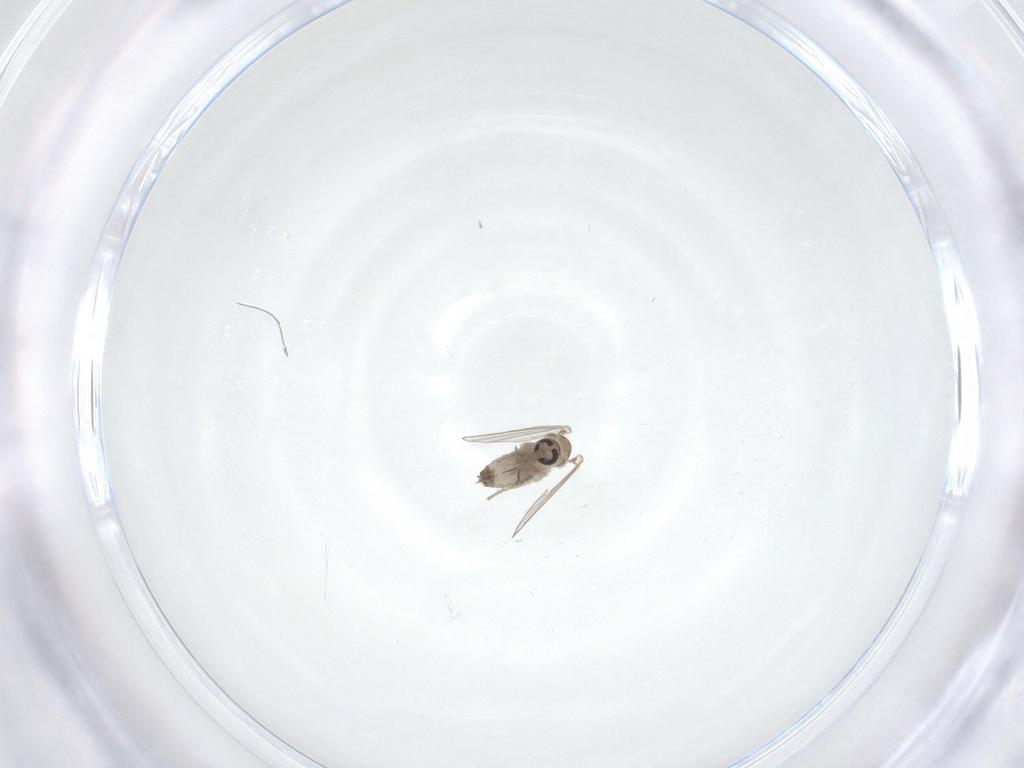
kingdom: Animalia
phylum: Arthropoda
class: Insecta
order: Diptera
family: Psychodidae
